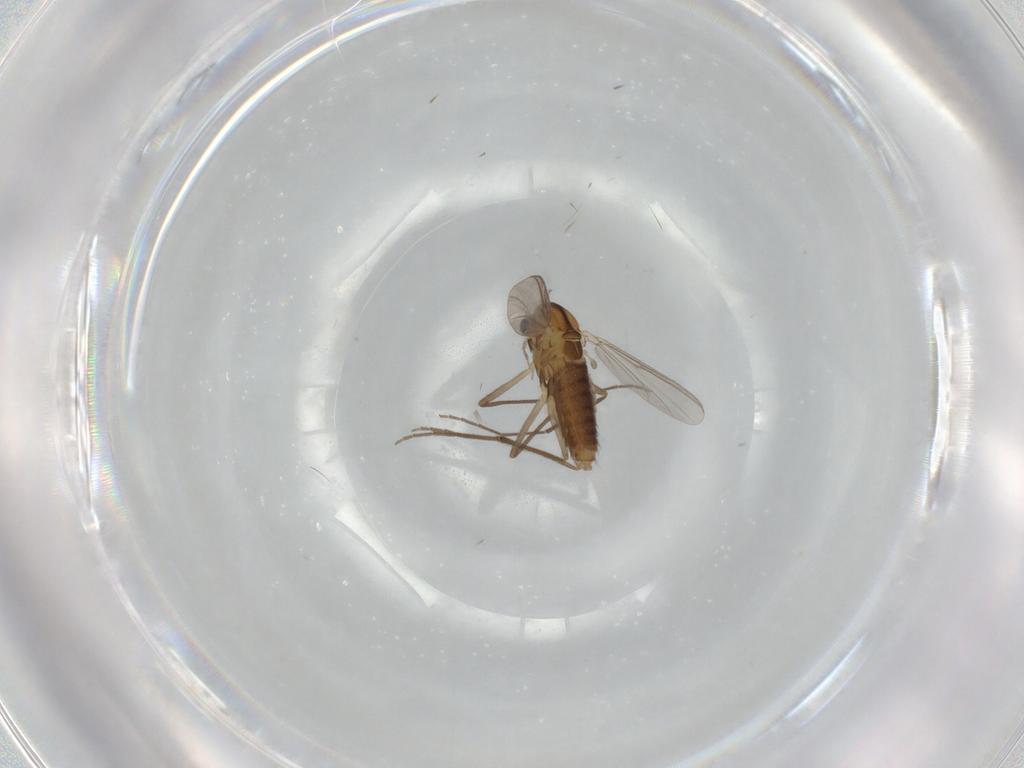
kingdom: Animalia
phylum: Arthropoda
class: Insecta
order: Diptera
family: Chironomidae
